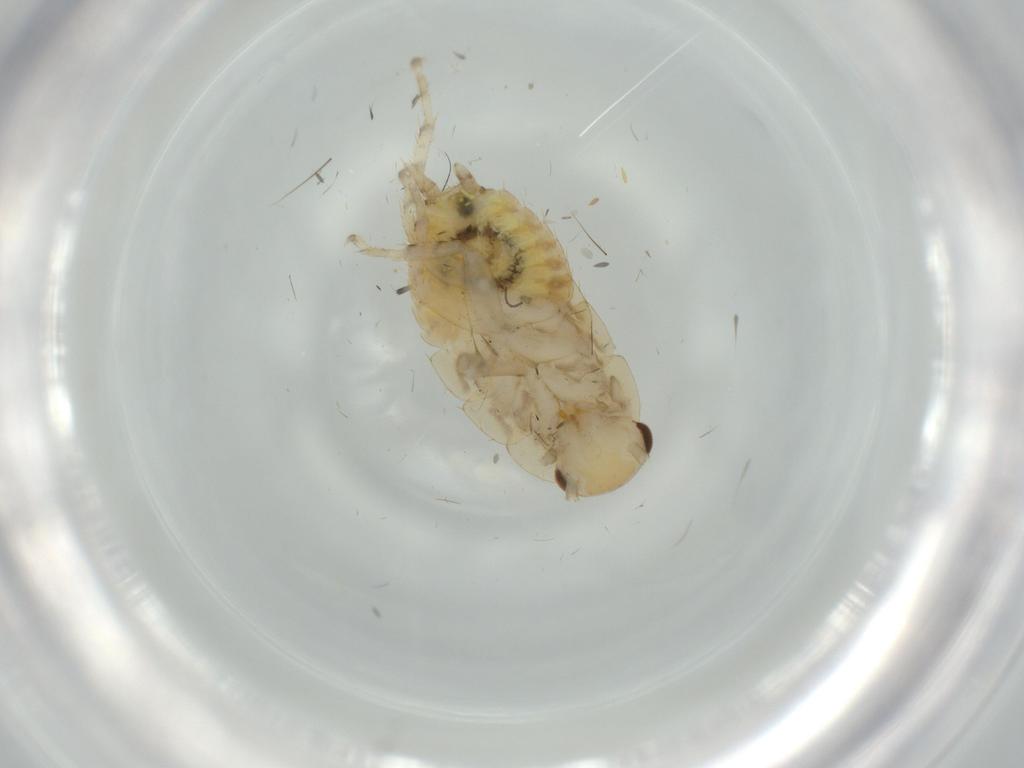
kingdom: Animalia
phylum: Arthropoda
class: Insecta
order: Blattodea
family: Ectobiidae
